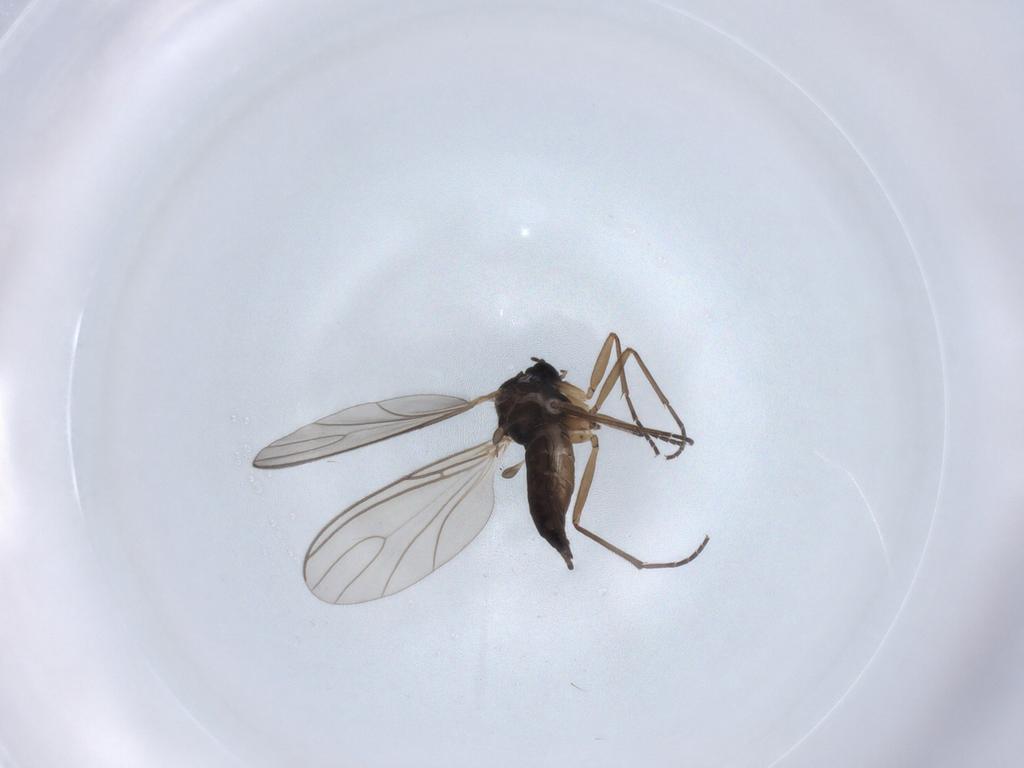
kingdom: Animalia
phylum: Arthropoda
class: Insecta
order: Diptera
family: Sciaridae
